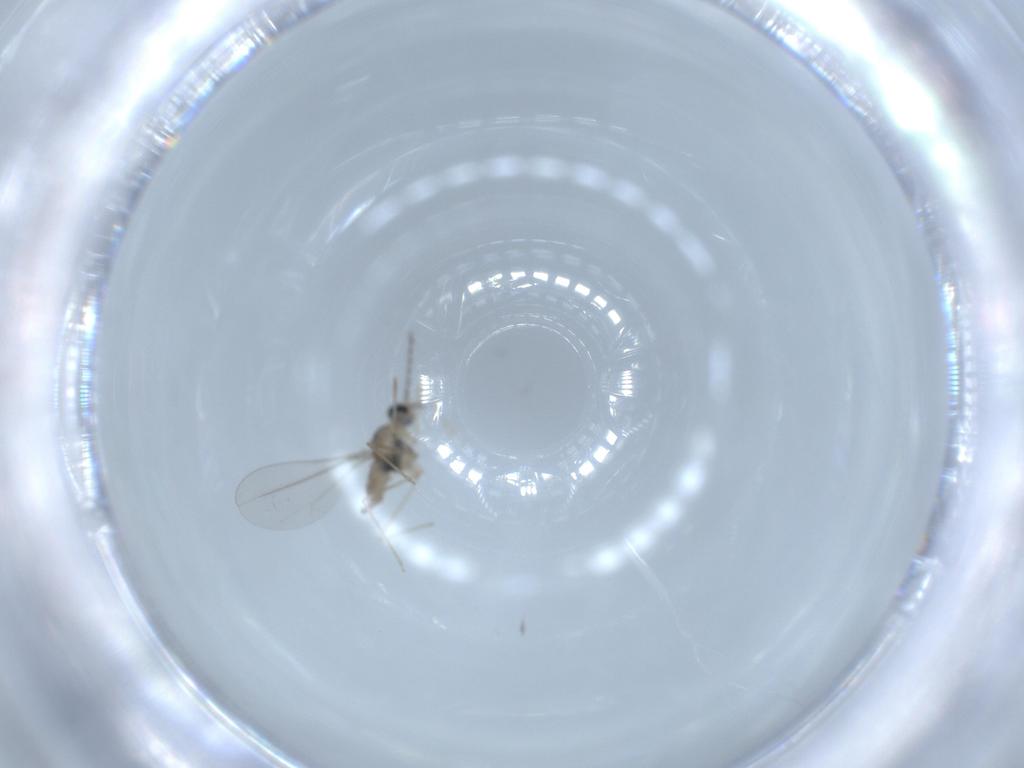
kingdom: Animalia
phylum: Arthropoda
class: Insecta
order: Diptera
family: Cecidomyiidae
